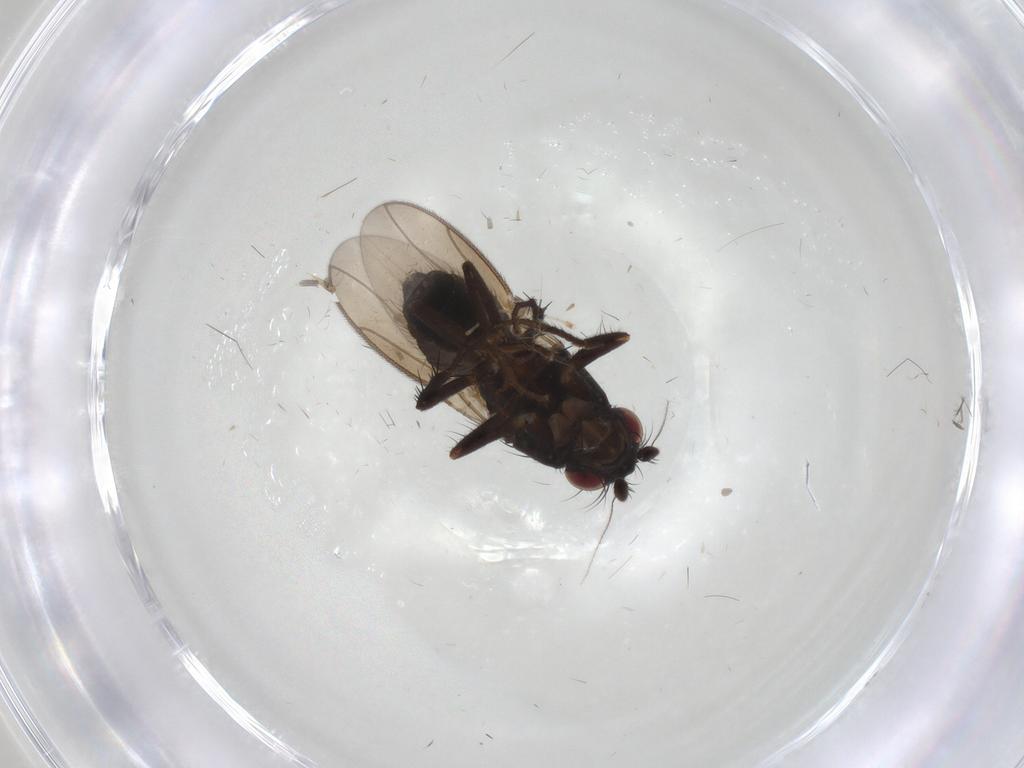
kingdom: Animalia
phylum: Arthropoda
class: Insecta
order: Diptera
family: Sphaeroceridae
